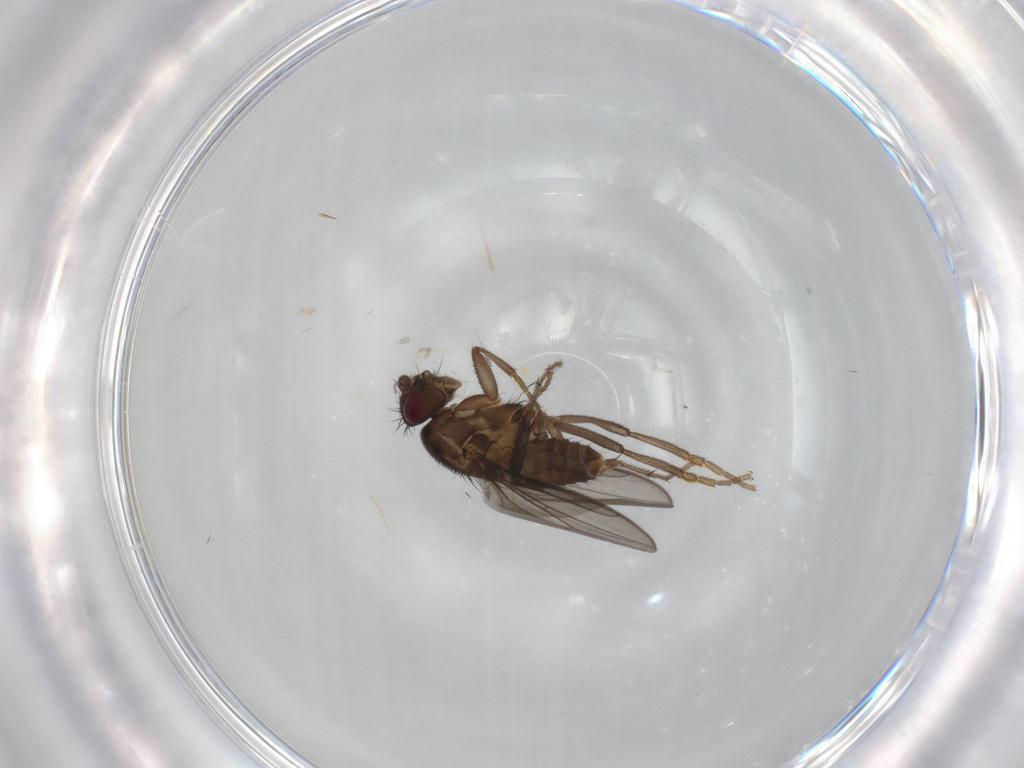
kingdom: Animalia
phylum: Arthropoda
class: Insecta
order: Diptera
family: Chironomidae
